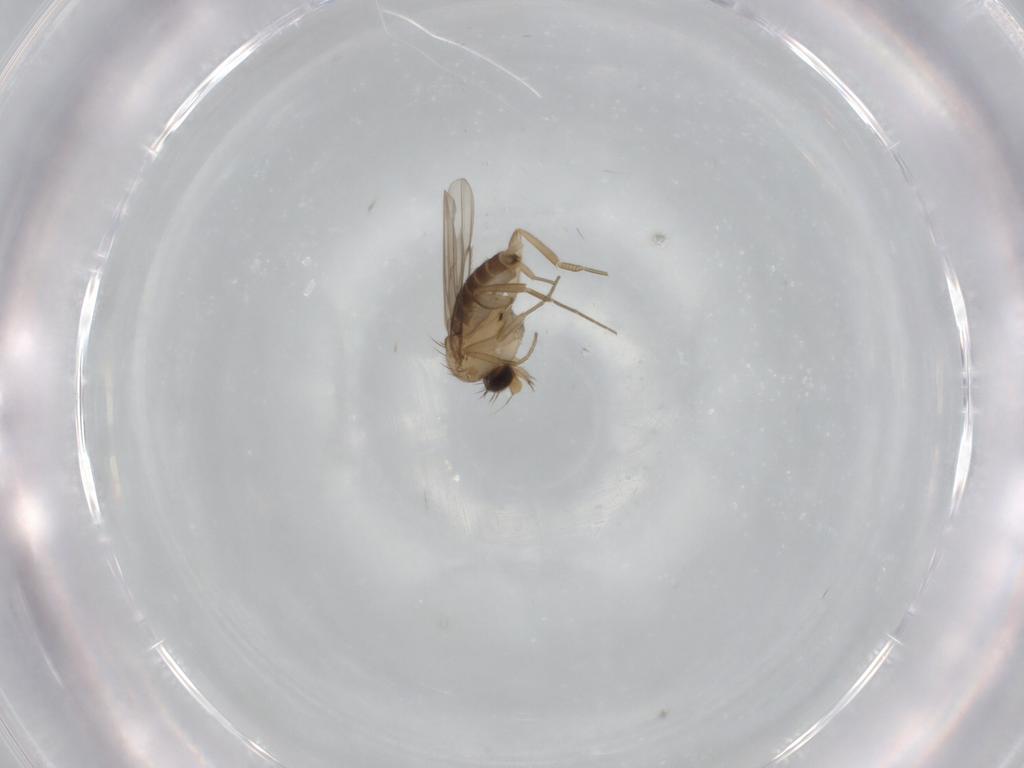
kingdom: Animalia
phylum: Arthropoda
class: Insecta
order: Diptera
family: Phoridae
